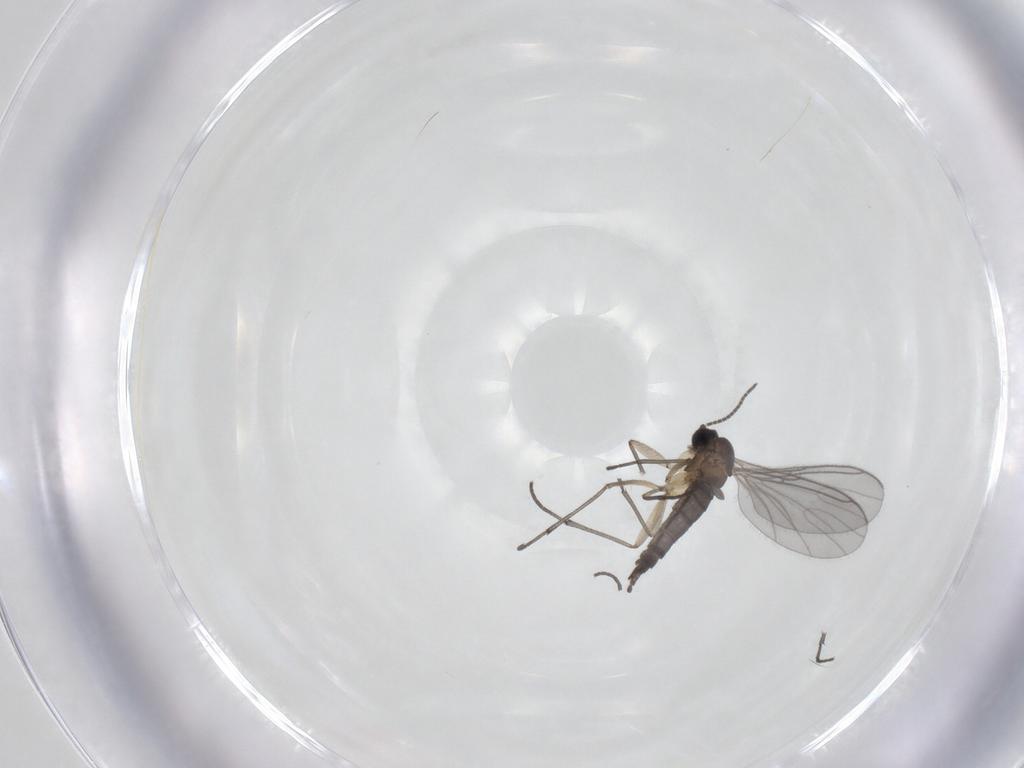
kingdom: Animalia
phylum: Arthropoda
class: Insecta
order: Diptera
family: Sciaridae
